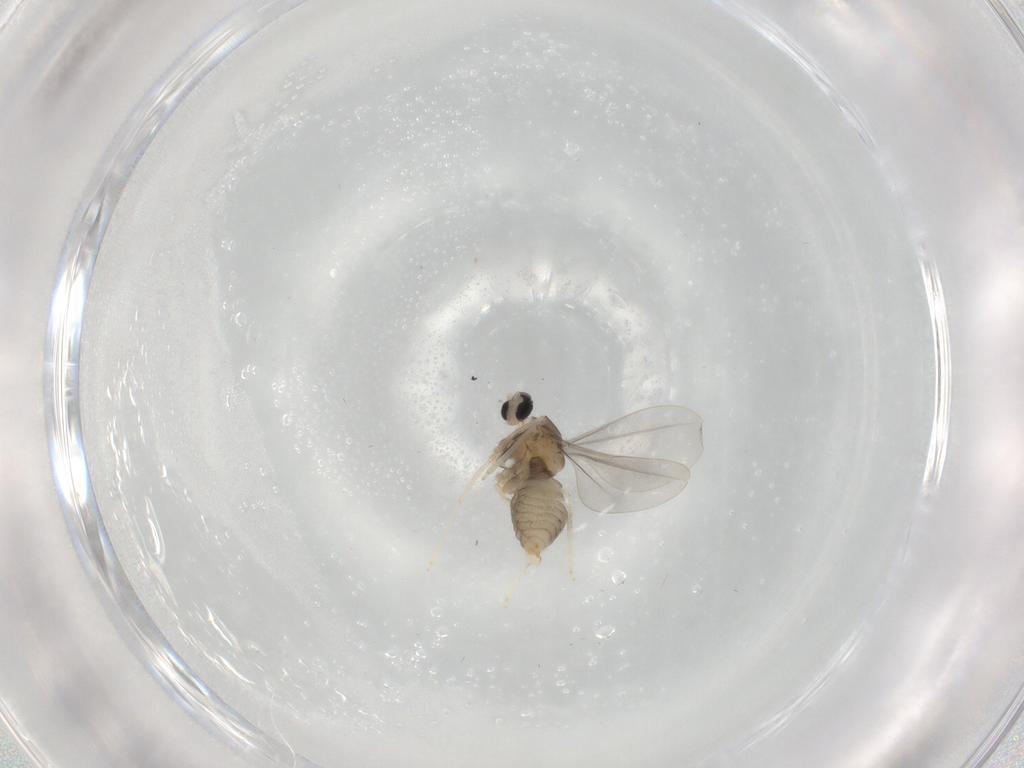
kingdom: Animalia
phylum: Arthropoda
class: Insecta
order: Diptera
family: Cecidomyiidae
